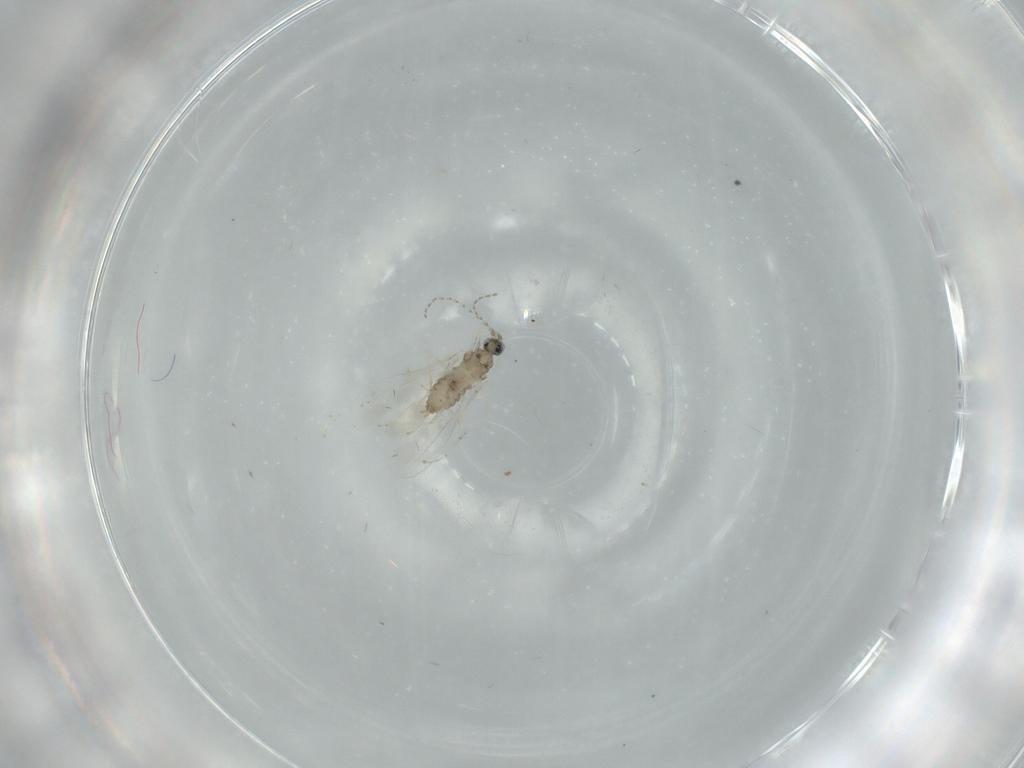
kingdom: Animalia
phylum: Arthropoda
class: Insecta
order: Diptera
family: Cecidomyiidae
